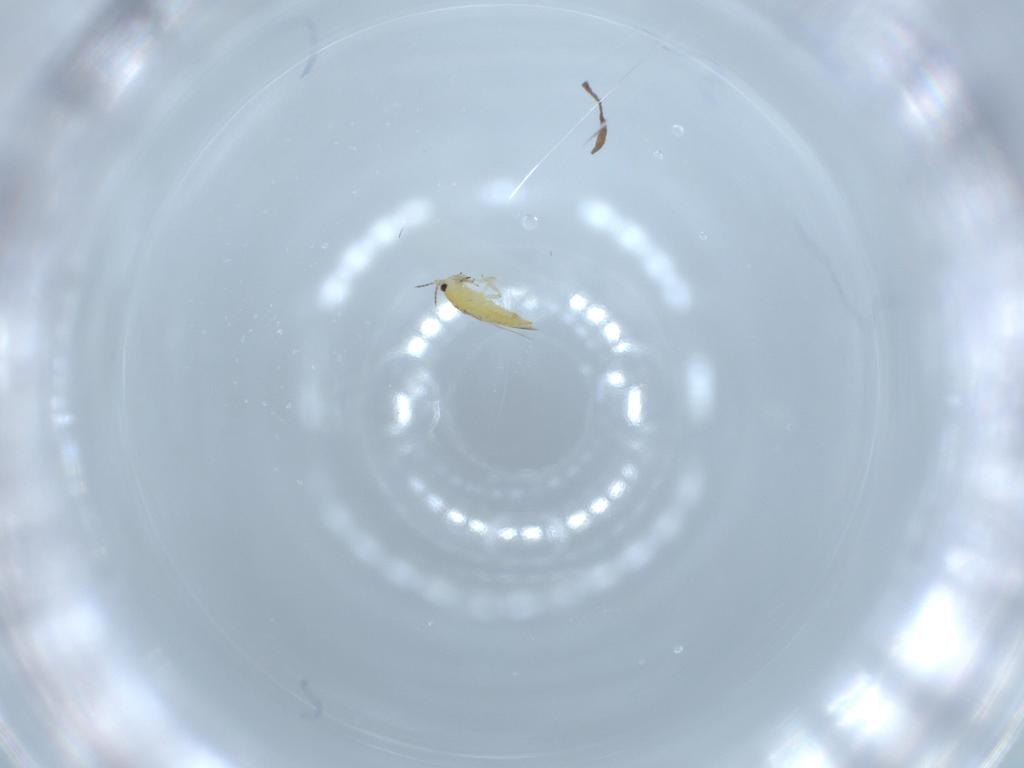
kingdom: Animalia
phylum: Arthropoda
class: Insecta
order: Thysanoptera
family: Thripidae
